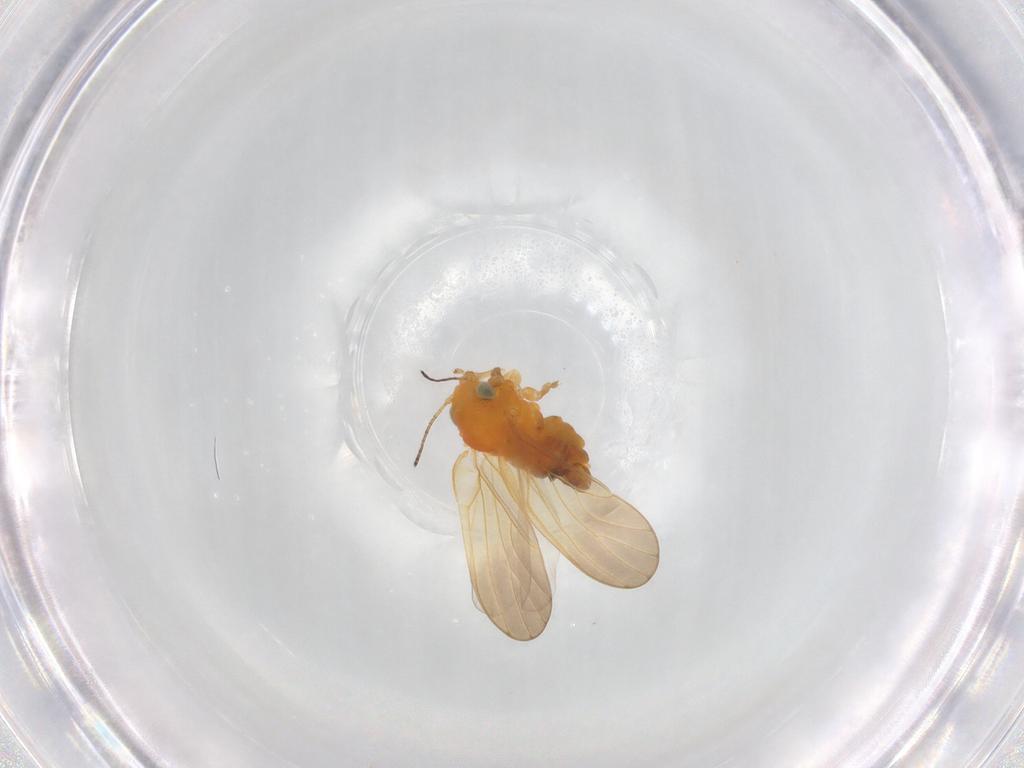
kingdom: Animalia
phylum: Arthropoda
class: Insecta
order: Hemiptera
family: Aphalaridae
